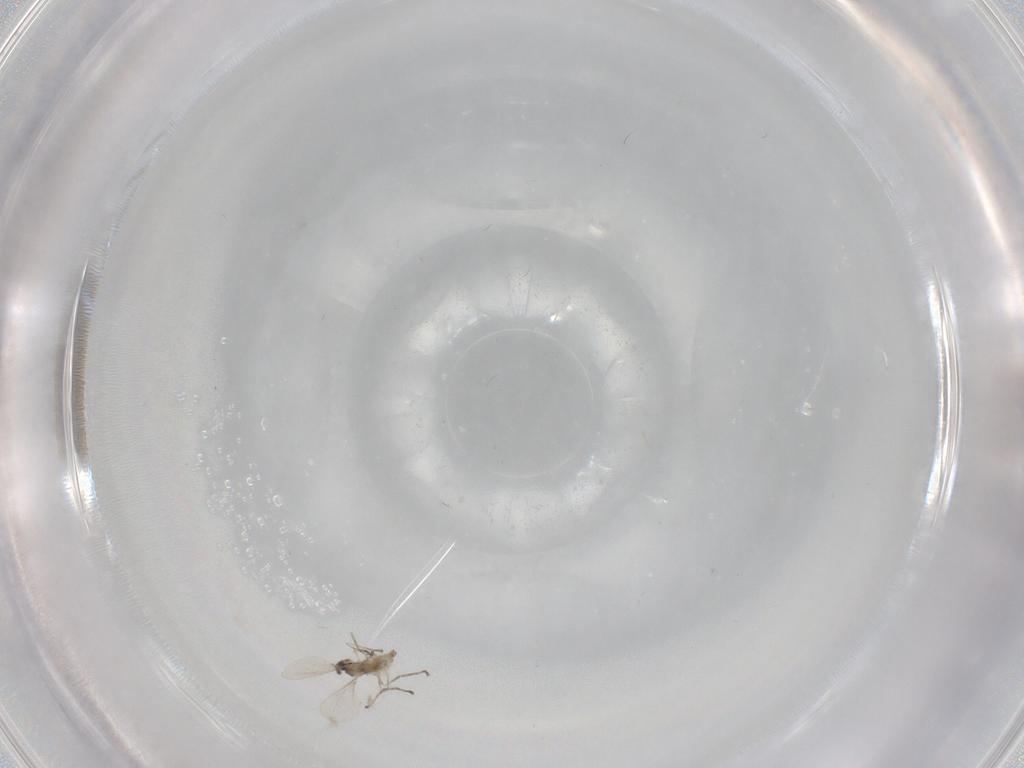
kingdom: Animalia
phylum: Arthropoda
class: Insecta
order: Diptera
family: Cecidomyiidae
